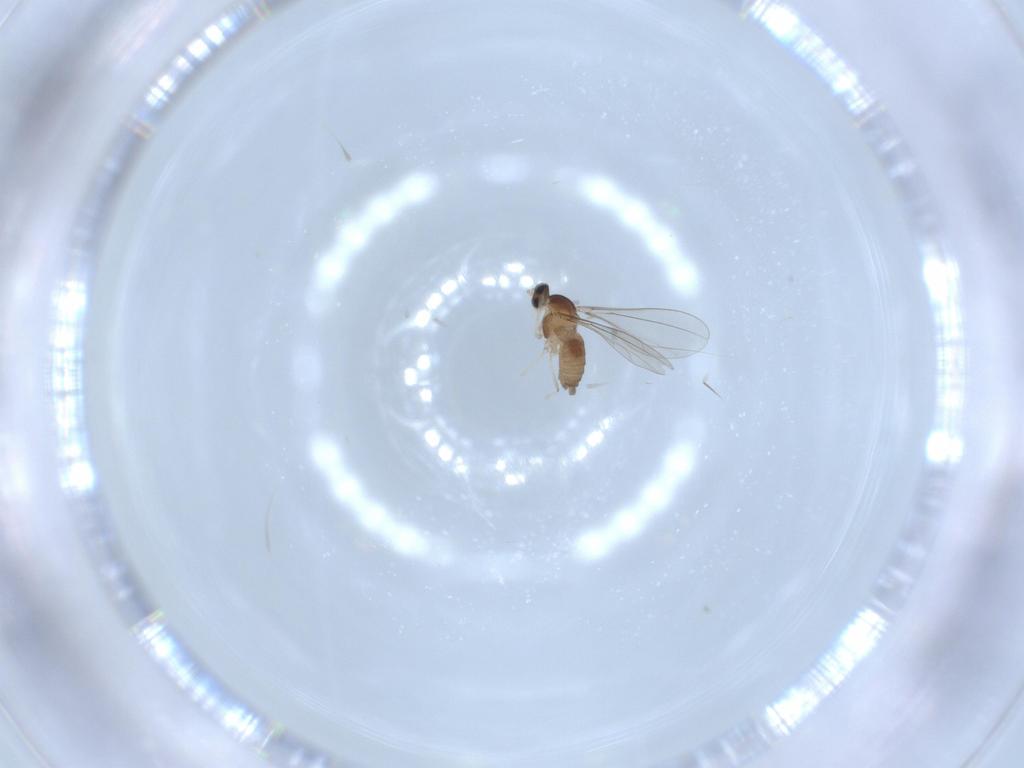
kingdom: Animalia
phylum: Arthropoda
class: Insecta
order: Diptera
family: Cecidomyiidae
